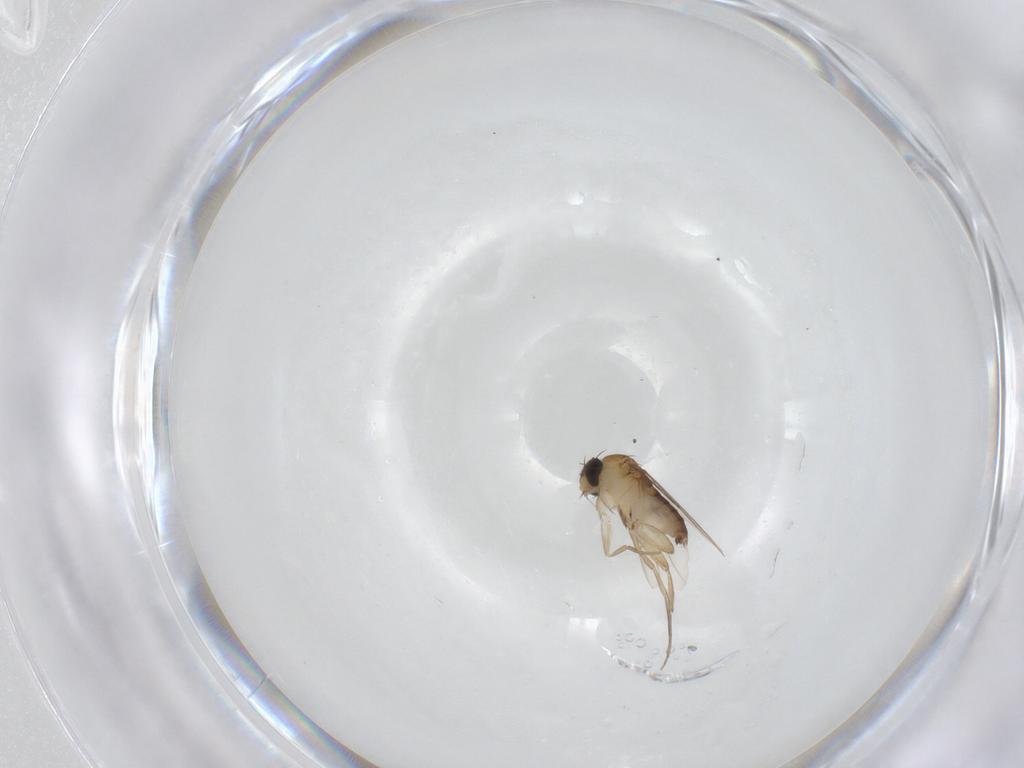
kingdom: Animalia
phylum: Arthropoda
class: Insecta
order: Diptera
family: Phoridae
